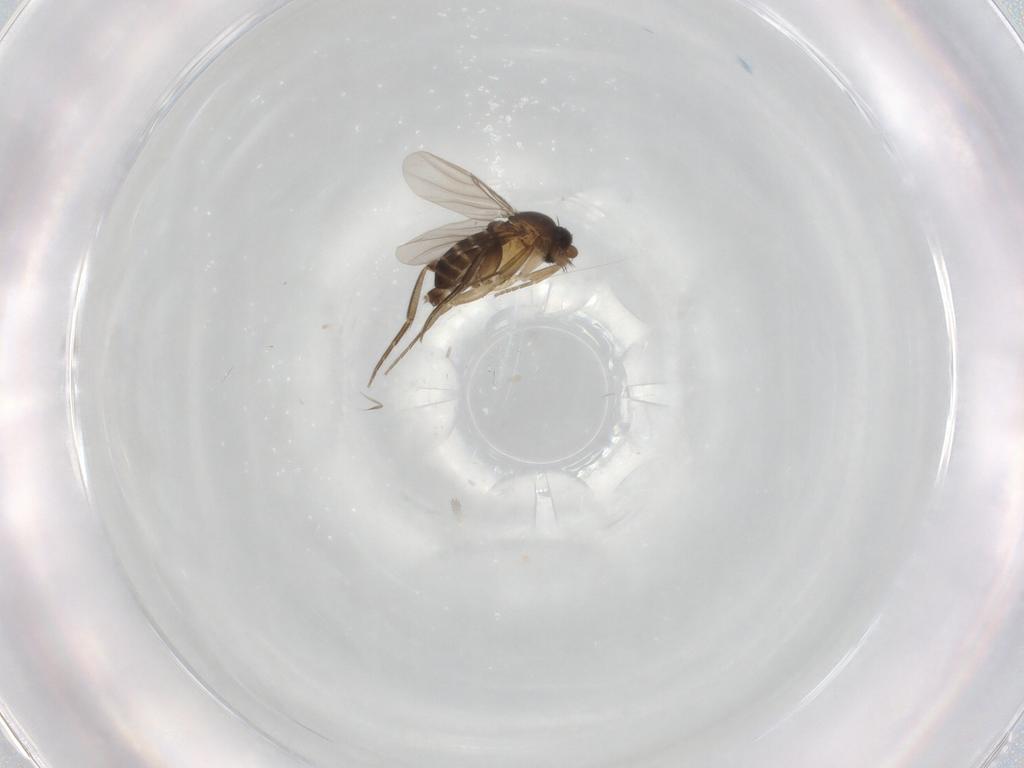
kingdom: Animalia
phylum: Arthropoda
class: Insecta
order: Diptera
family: Phoridae
